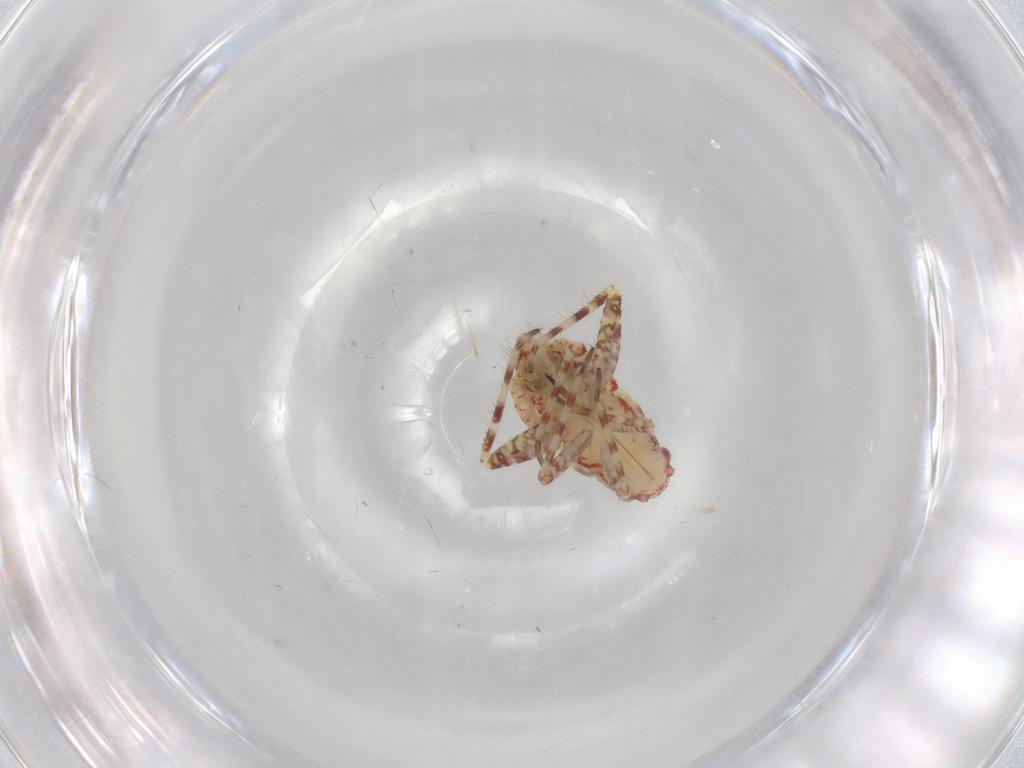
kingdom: Animalia
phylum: Arthropoda
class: Insecta
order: Hemiptera
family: Miridae
